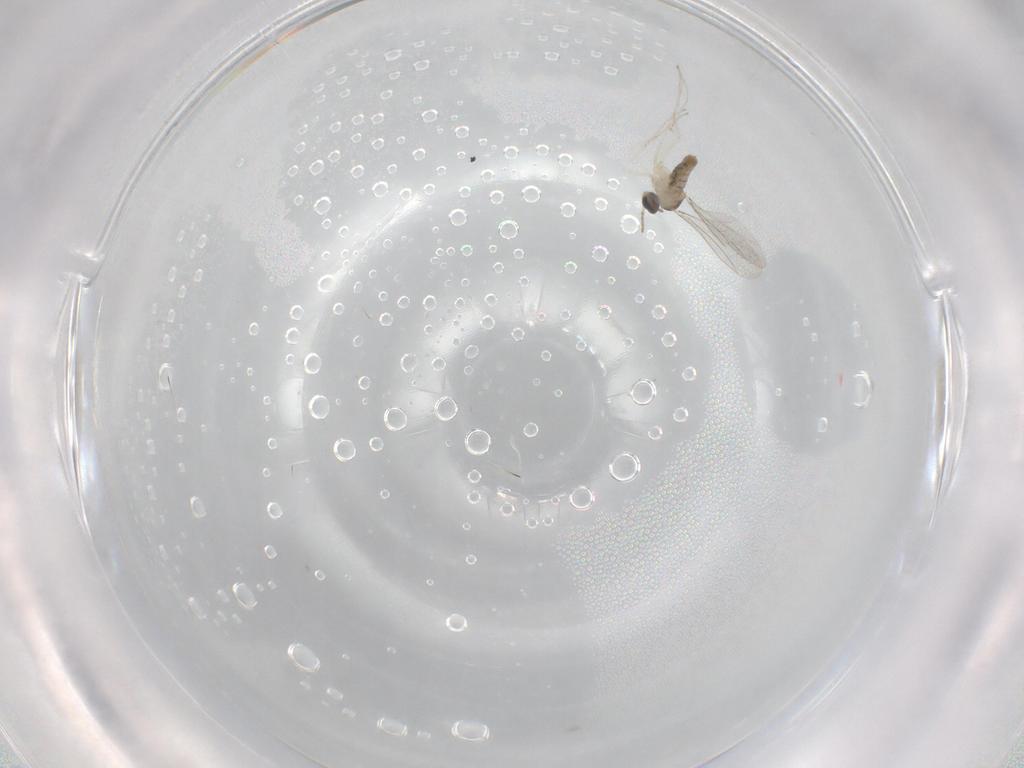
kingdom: Animalia
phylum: Arthropoda
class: Insecta
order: Diptera
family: Cecidomyiidae
